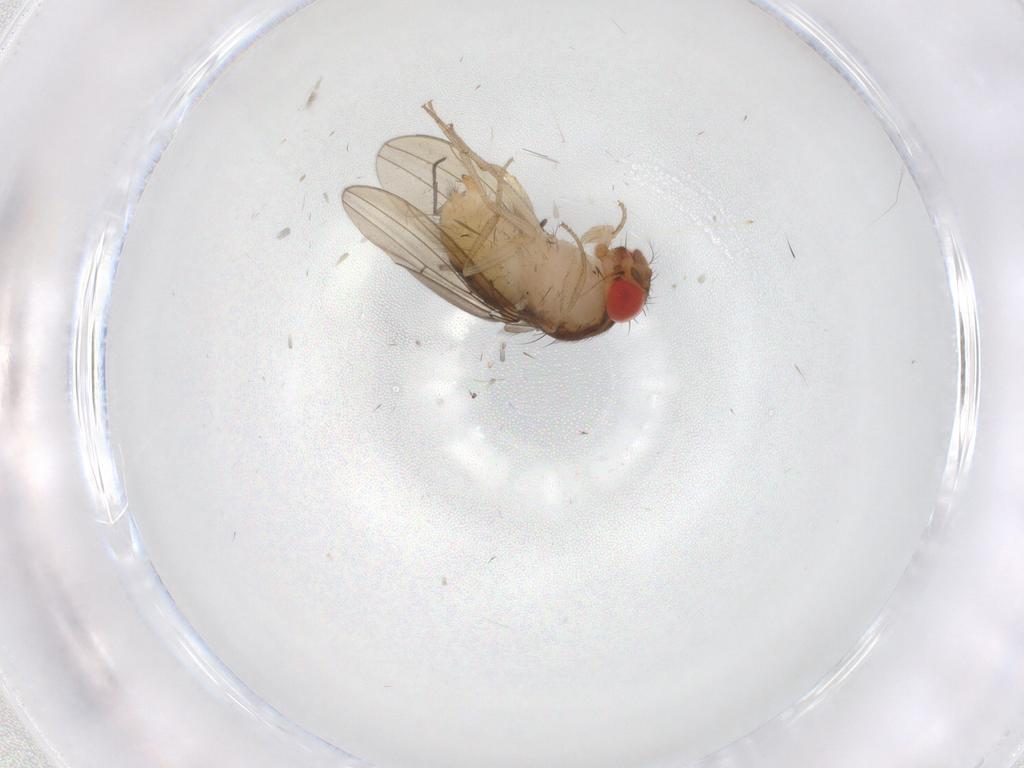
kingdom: Animalia
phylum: Arthropoda
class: Insecta
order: Diptera
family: Drosophilidae
